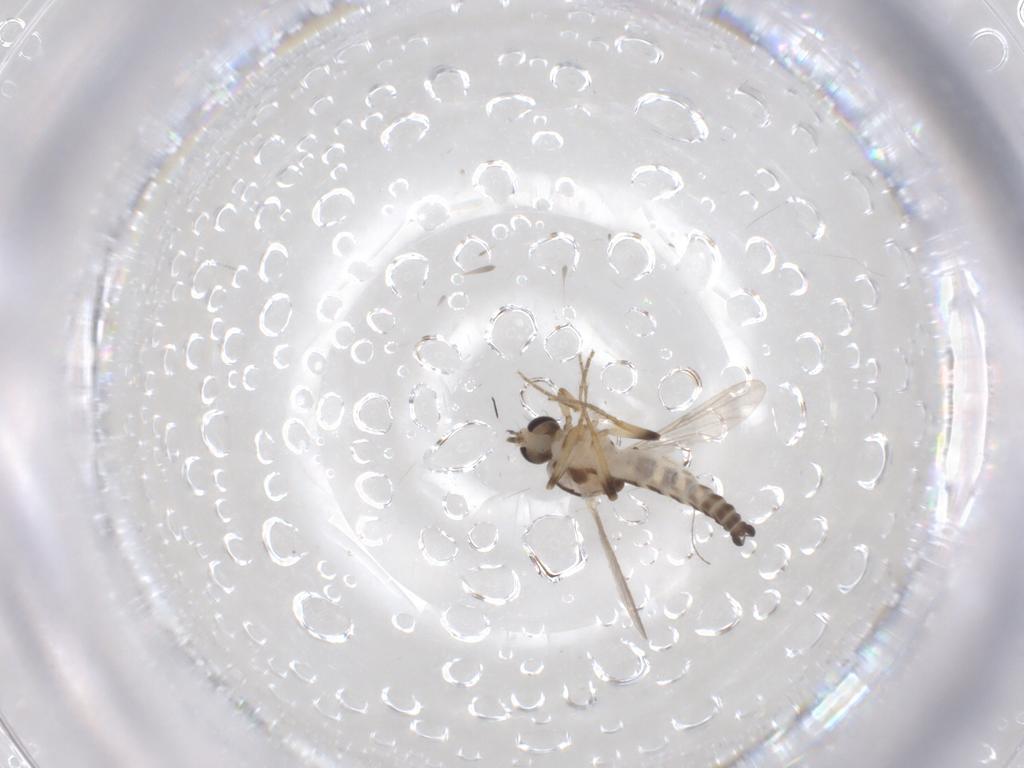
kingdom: Animalia
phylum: Arthropoda
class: Insecta
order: Diptera
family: Ceratopogonidae
